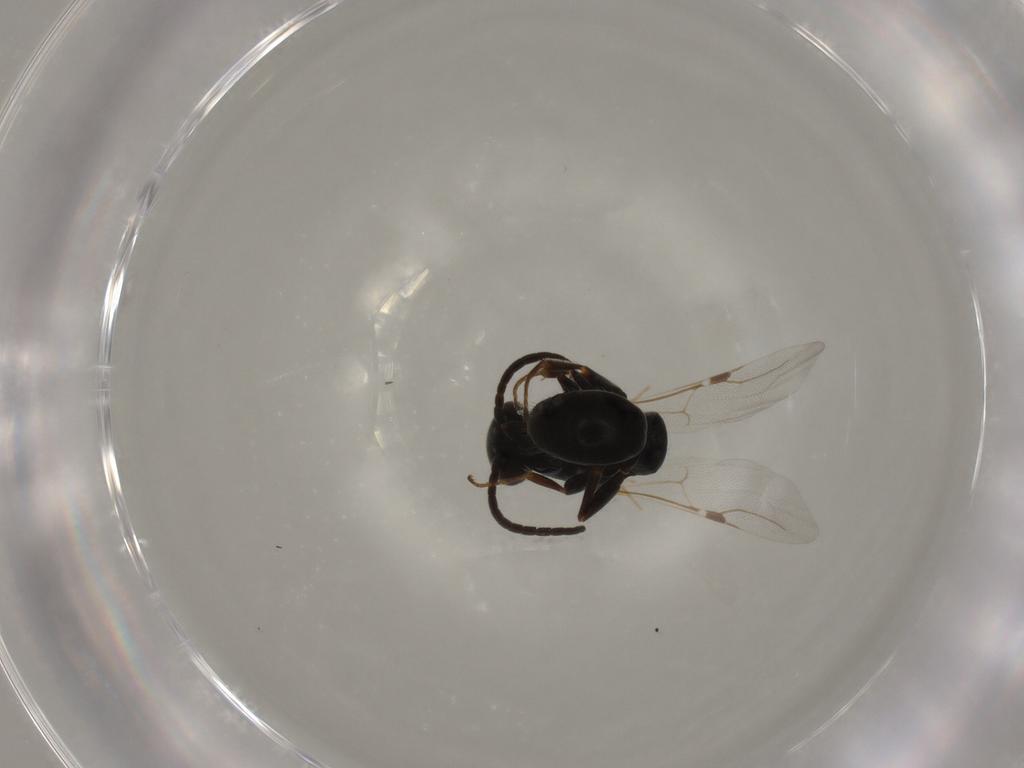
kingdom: Animalia
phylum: Arthropoda
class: Insecta
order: Hymenoptera
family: Bethylidae
